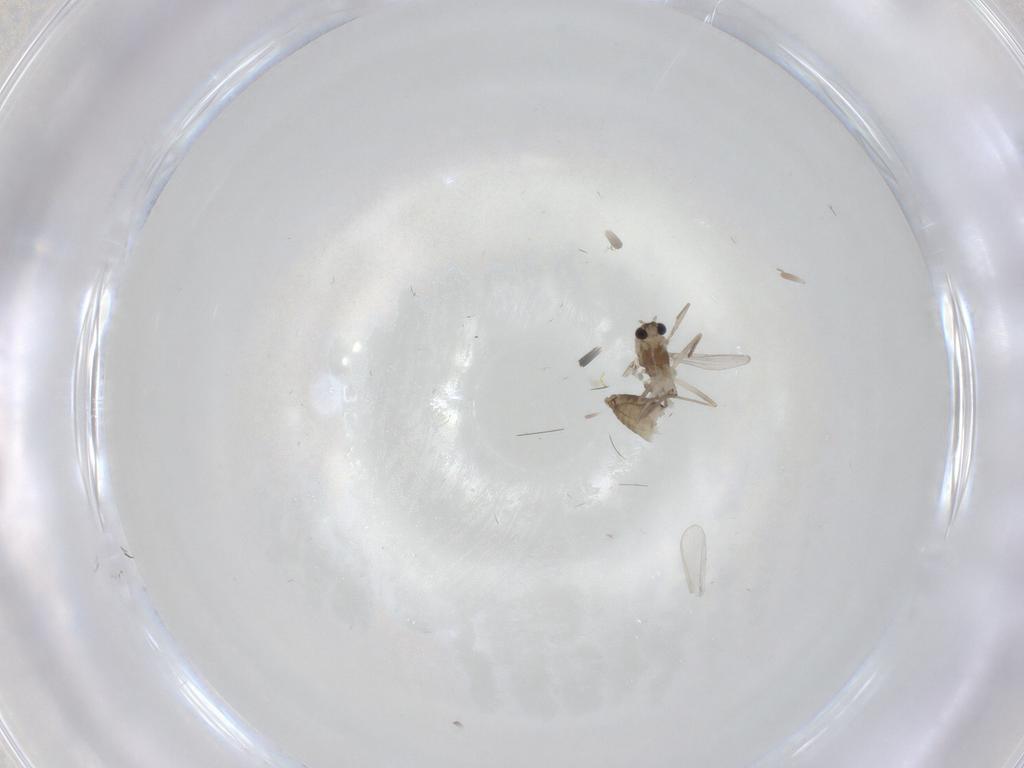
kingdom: Animalia
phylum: Arthropoda
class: Insecta
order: Diptera
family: Chironomidae
